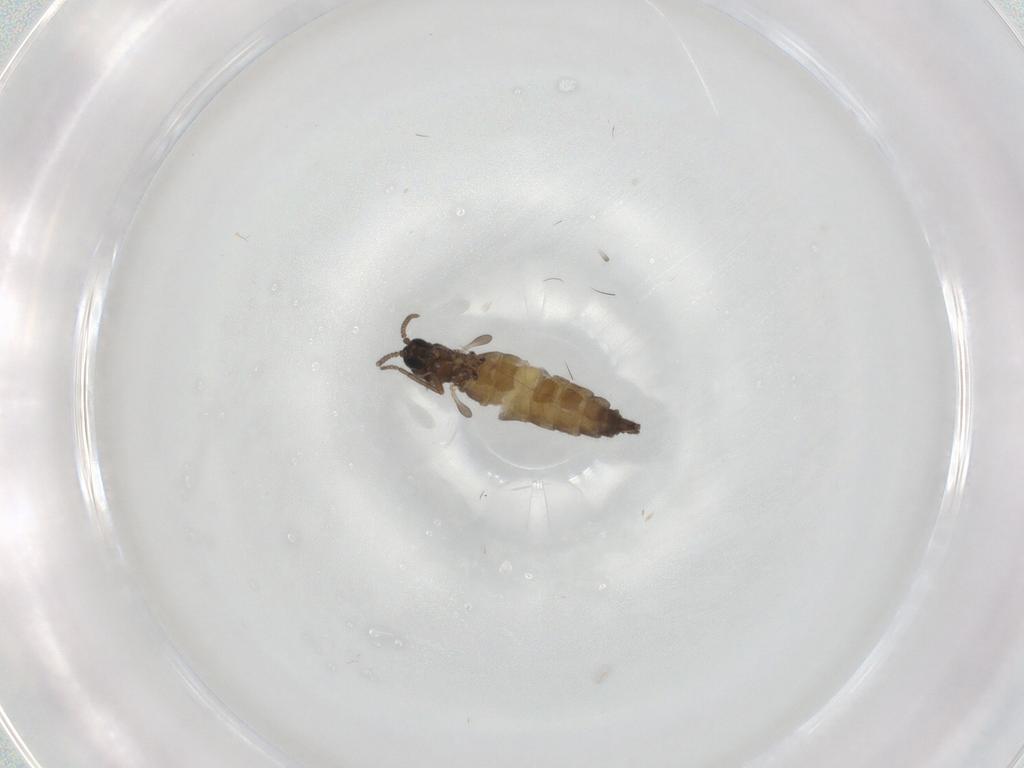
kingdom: Animalia
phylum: Arthropoda
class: Insecta
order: Diptera
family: Sciaridae
